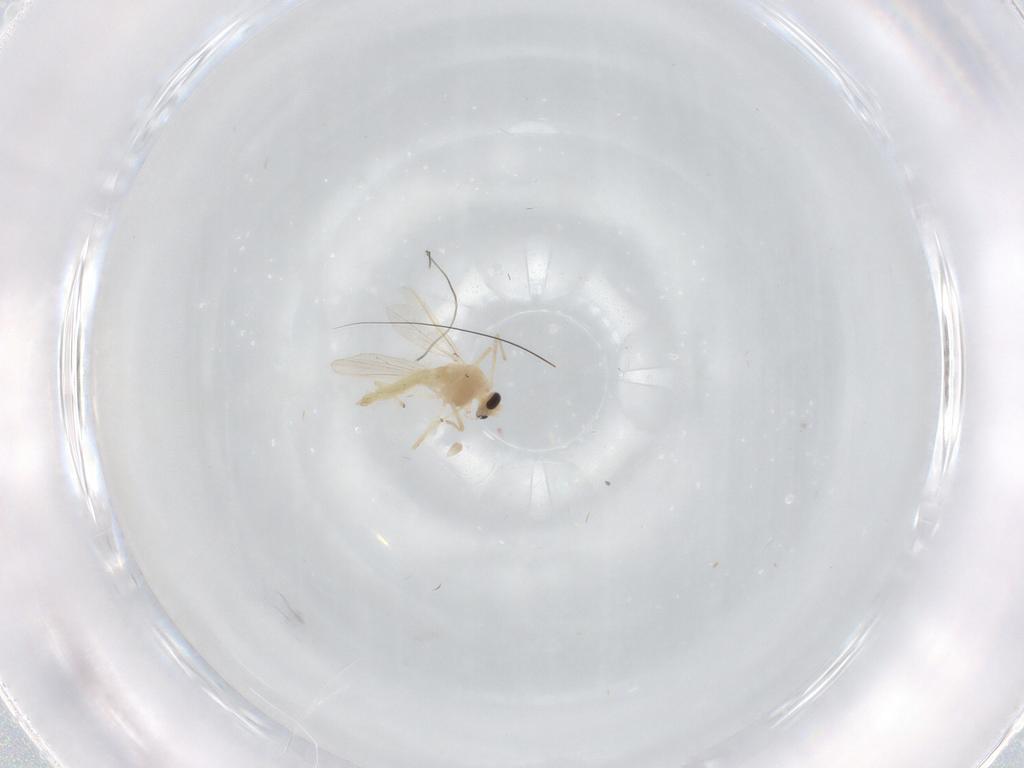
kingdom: Animalia
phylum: Arthropoda
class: Insecta
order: Diptera
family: Chironomidae
